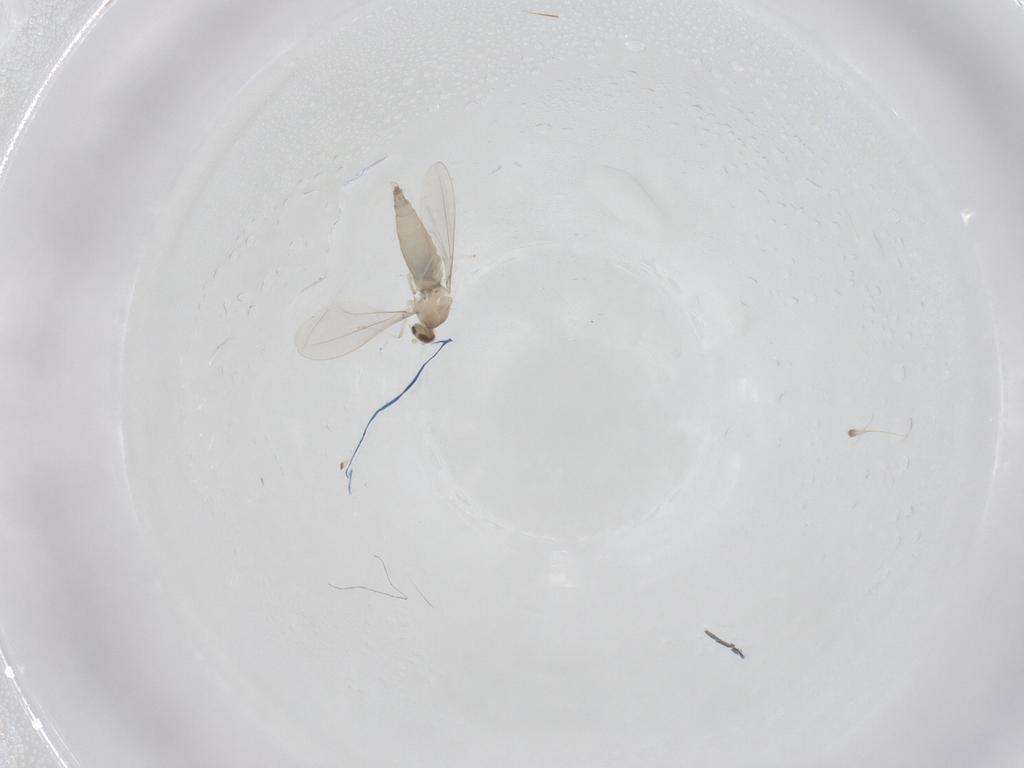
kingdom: Animalia
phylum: Arthropoda
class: Insecta
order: Diptera
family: Cecidomyiidae
